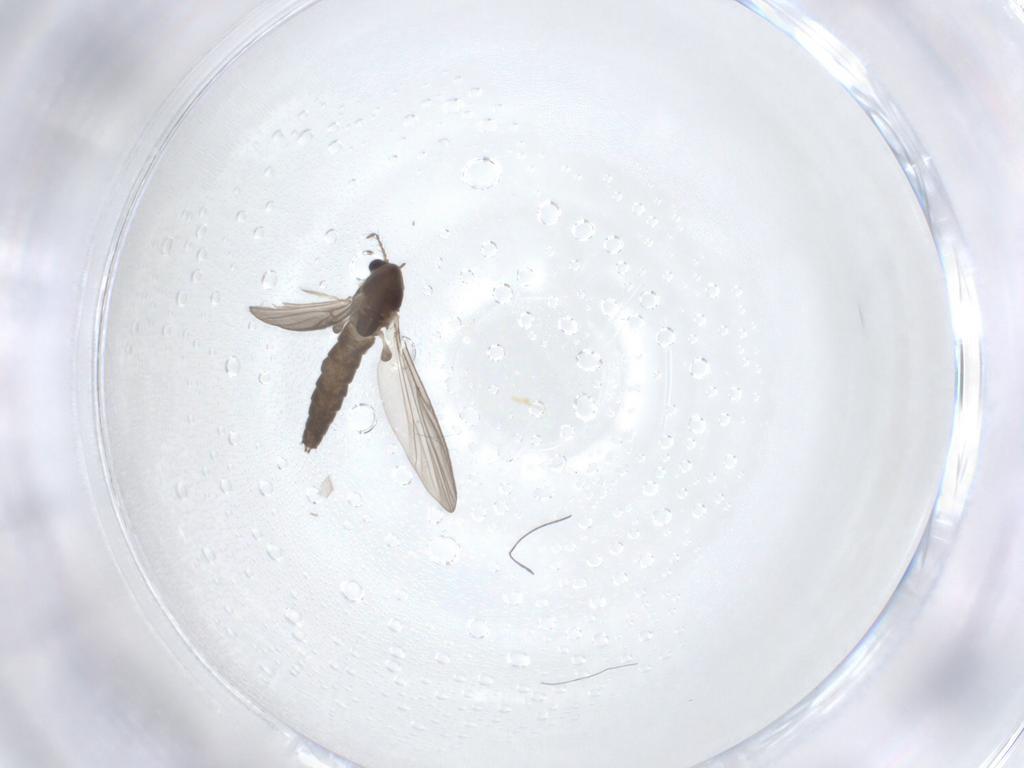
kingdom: Animalia
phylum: Arthropoda
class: Insecta
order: Diptera
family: Chironomidae
